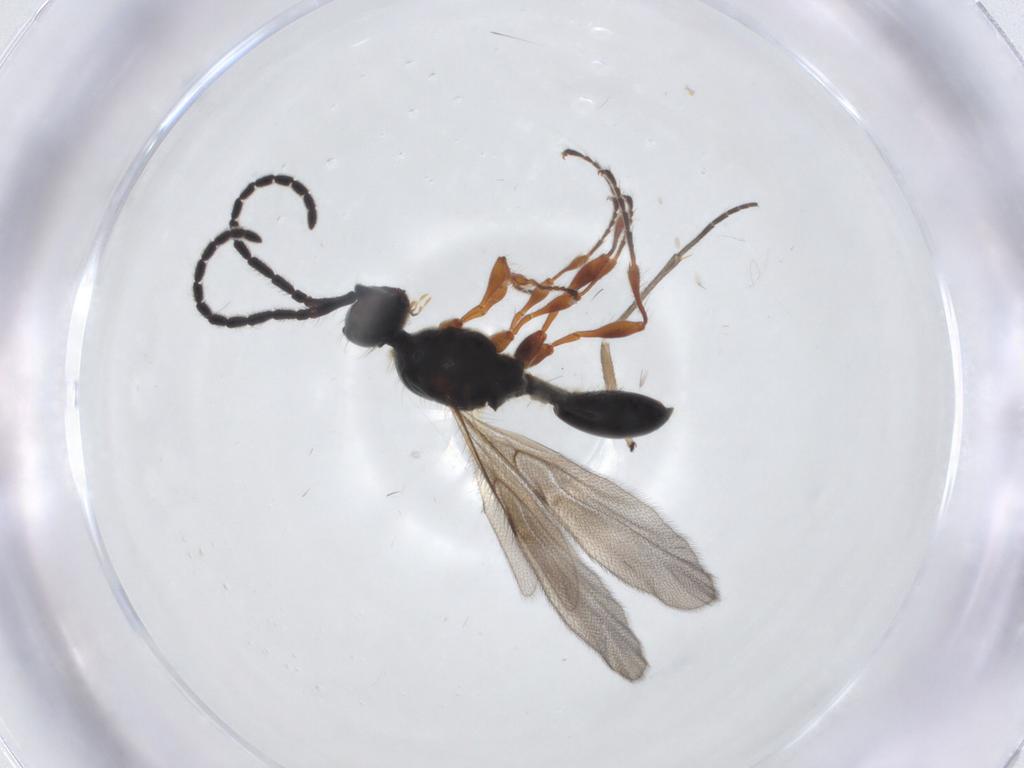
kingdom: Animalia
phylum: Arthropoda
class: Insecta
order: Hymenoptera
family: Diapriidae
